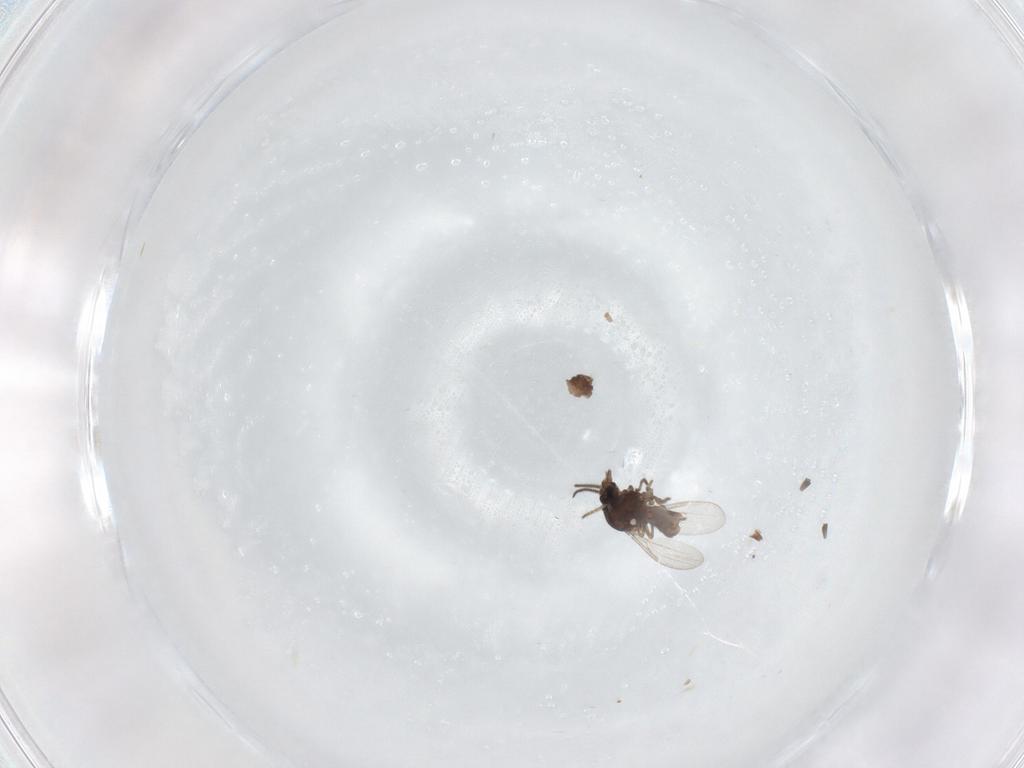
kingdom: Animalia
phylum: Arthropoda
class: Insecta
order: Diptera
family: Ceratopogonidae
